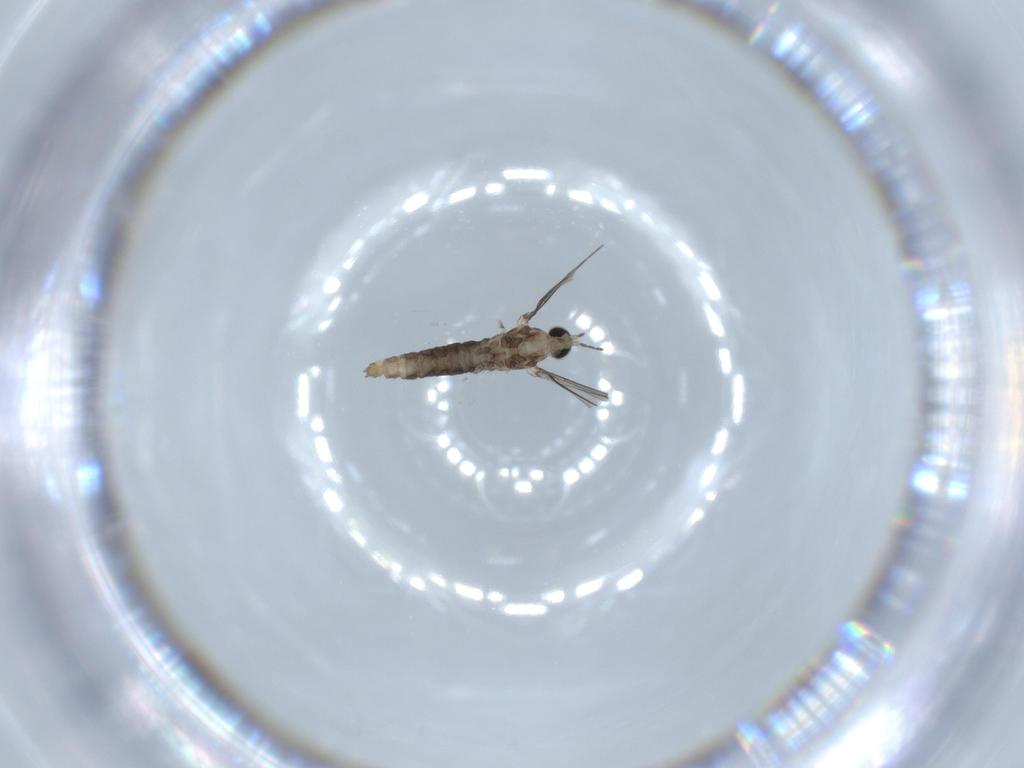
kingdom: Animalia
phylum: Arthropoda
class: Insecta
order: Diptera
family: Cecidomyiidae
